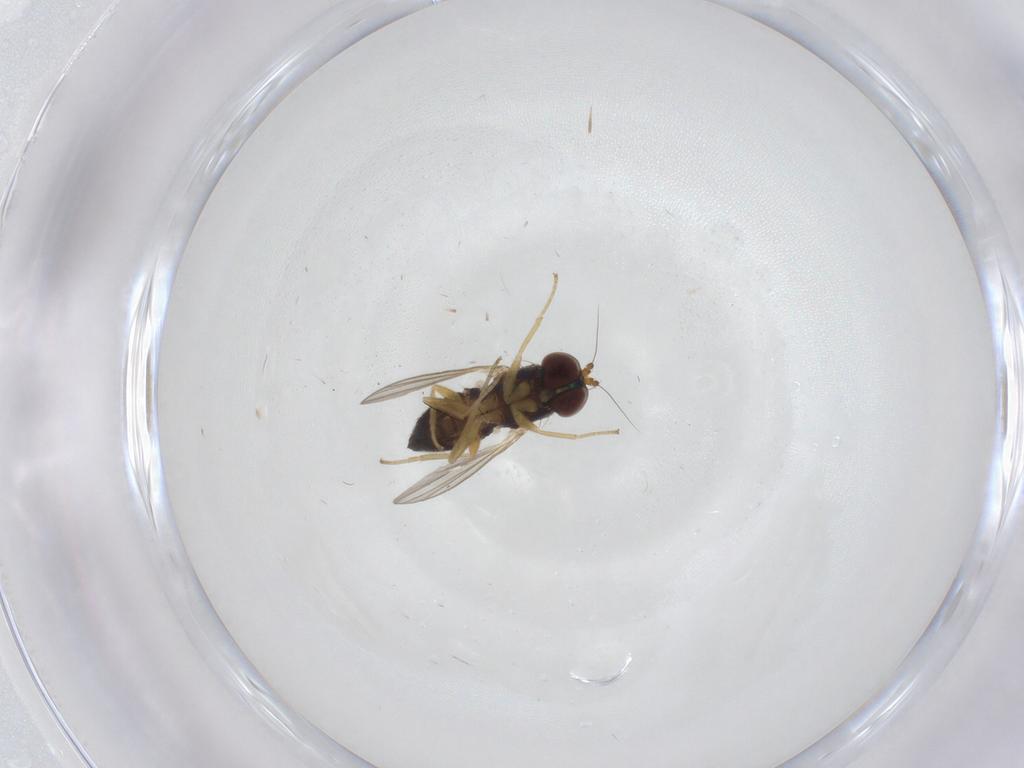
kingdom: Animalia
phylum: Arthropoda
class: Insecta
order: Diptera
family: Dolichopodidae
